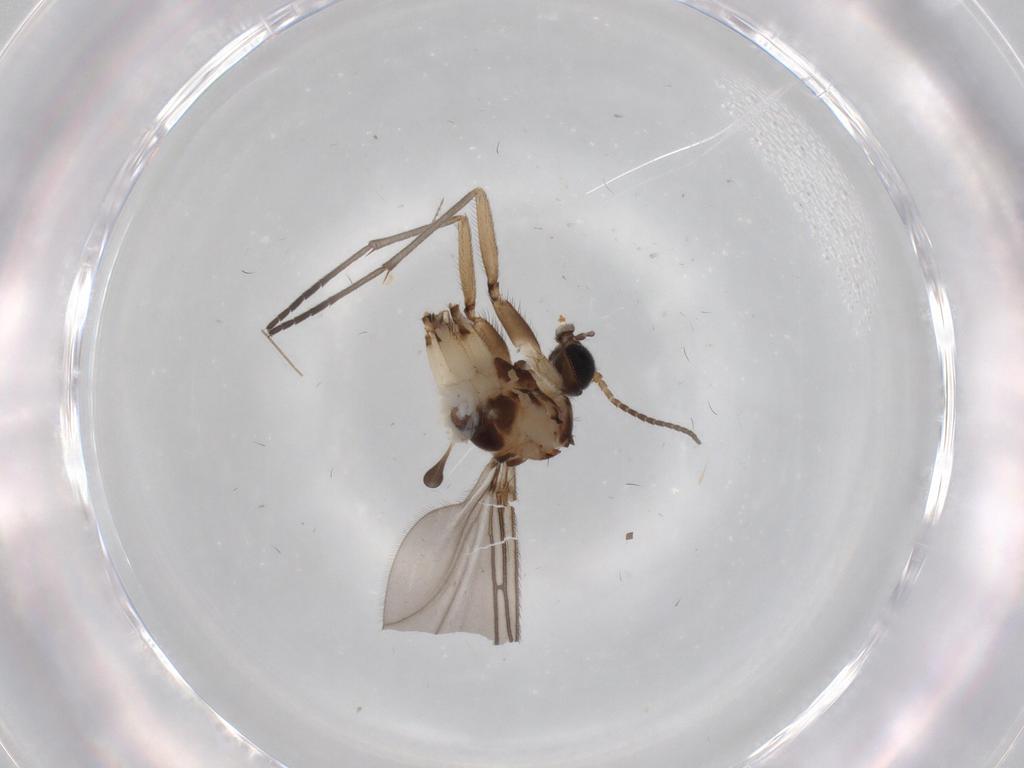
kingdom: Animalia
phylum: Arthropoda
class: Insecta
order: Diptera
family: Sciaridae
